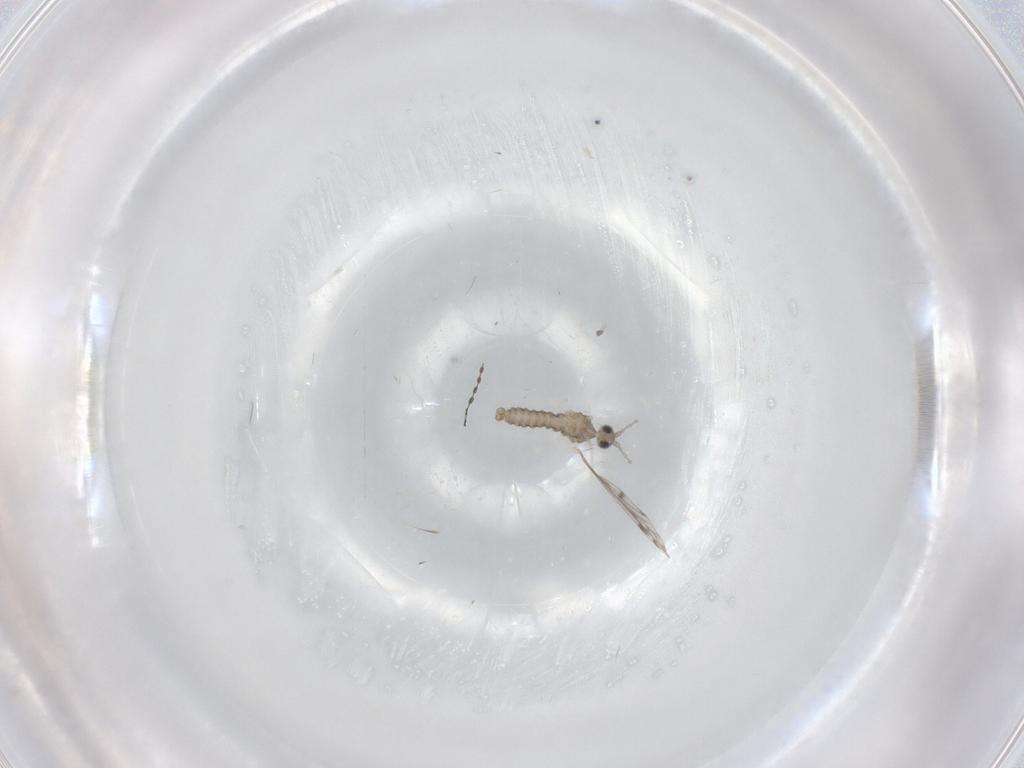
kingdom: Animalia
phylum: Arthropoda
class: Insecta
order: Diptera
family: Cecidomyiidae
